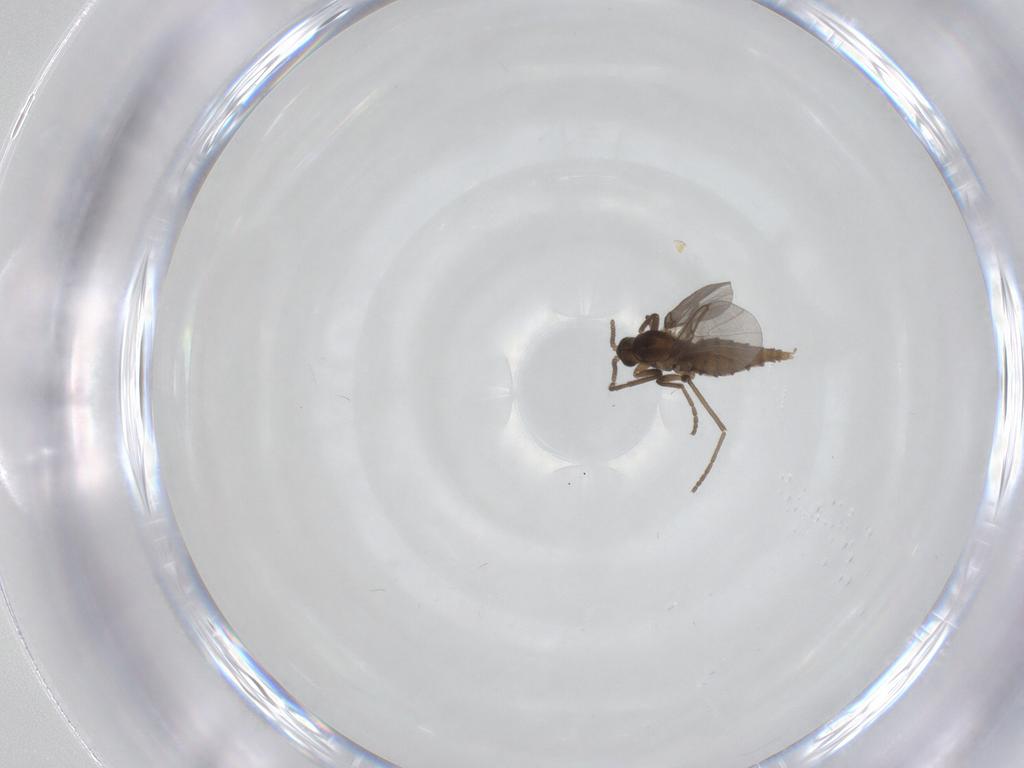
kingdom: Animalia
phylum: Arthropoda
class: Insecta
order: Diptera
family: Cecidomyiidae
